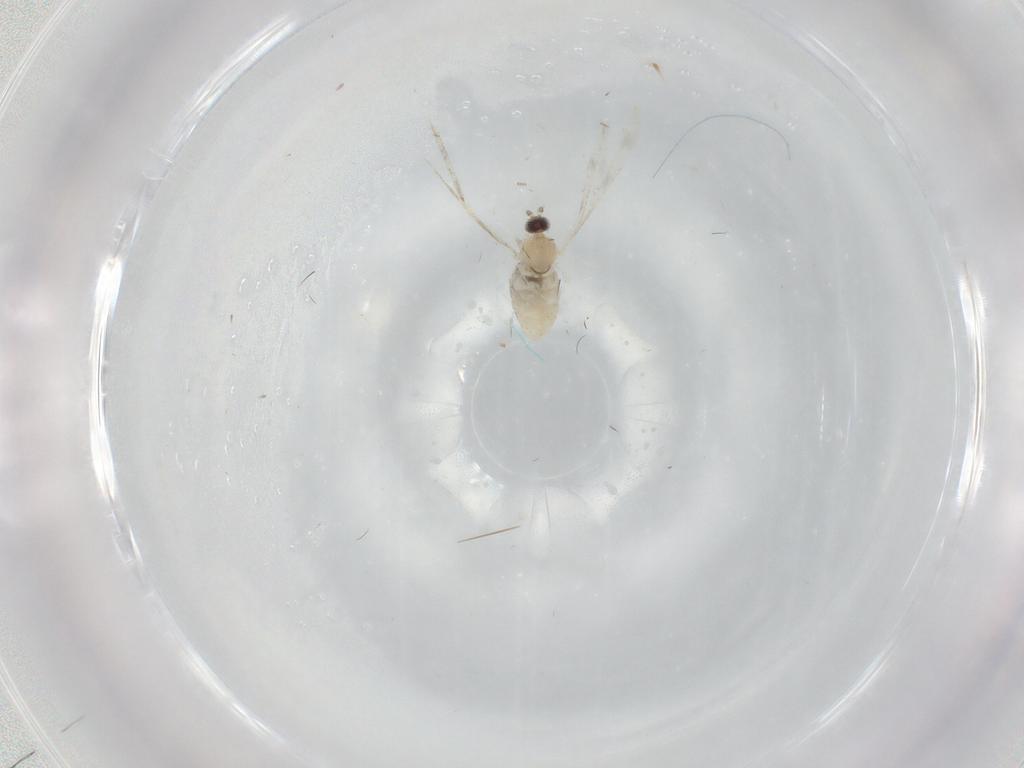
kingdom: Animalia
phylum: Arthropoda
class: Insecta
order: Diptera
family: Cecidomyiidae
